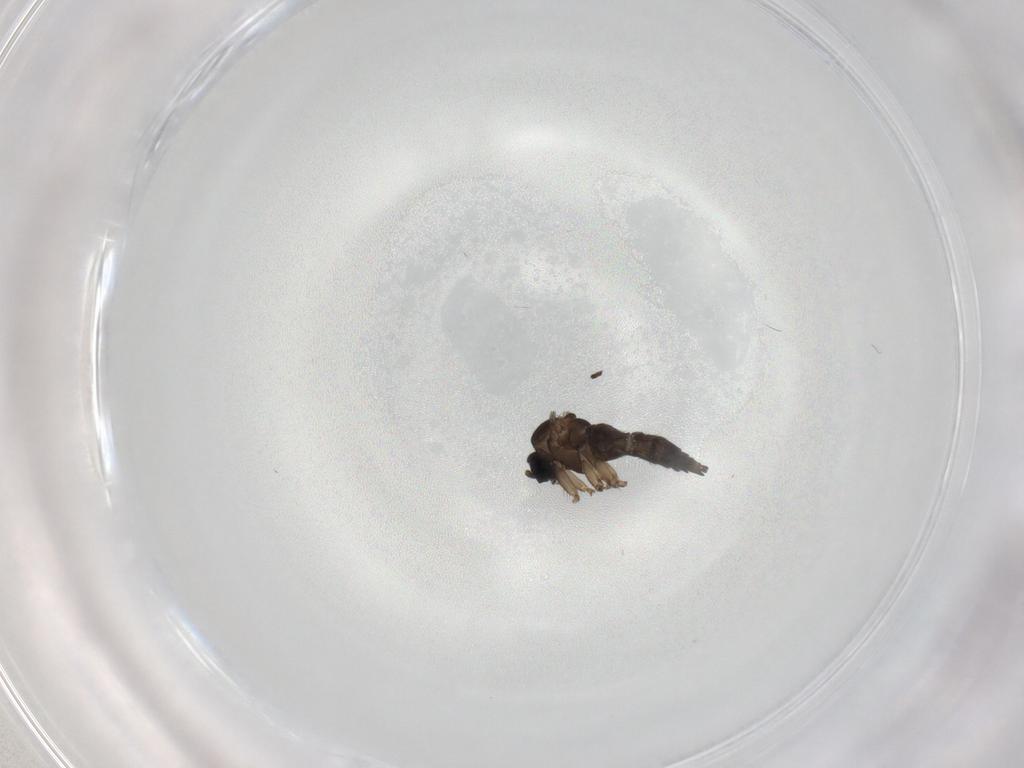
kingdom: Animalia
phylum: Arthropoda
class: Insecta
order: Diptera
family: Sciaridae
